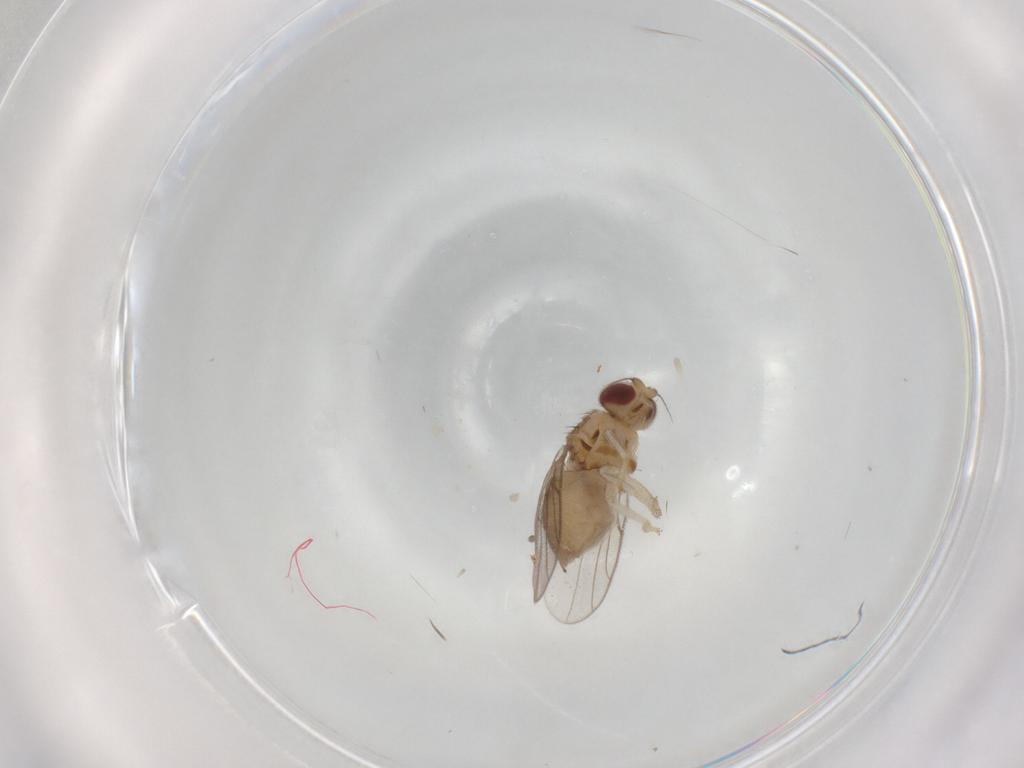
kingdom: Animalia
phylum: Arthropoda
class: Insecta
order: Diptera
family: Chloropidae
